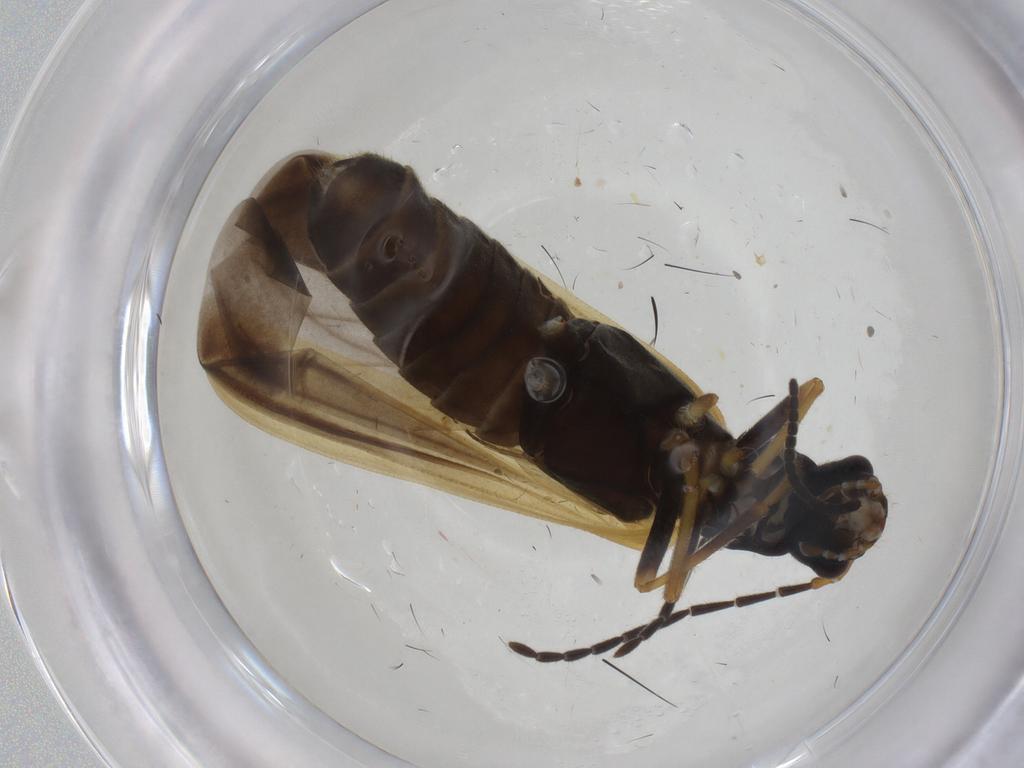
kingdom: Animalia
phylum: Arthropoda
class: Insecta
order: Coleoptera
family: Cantharidae
